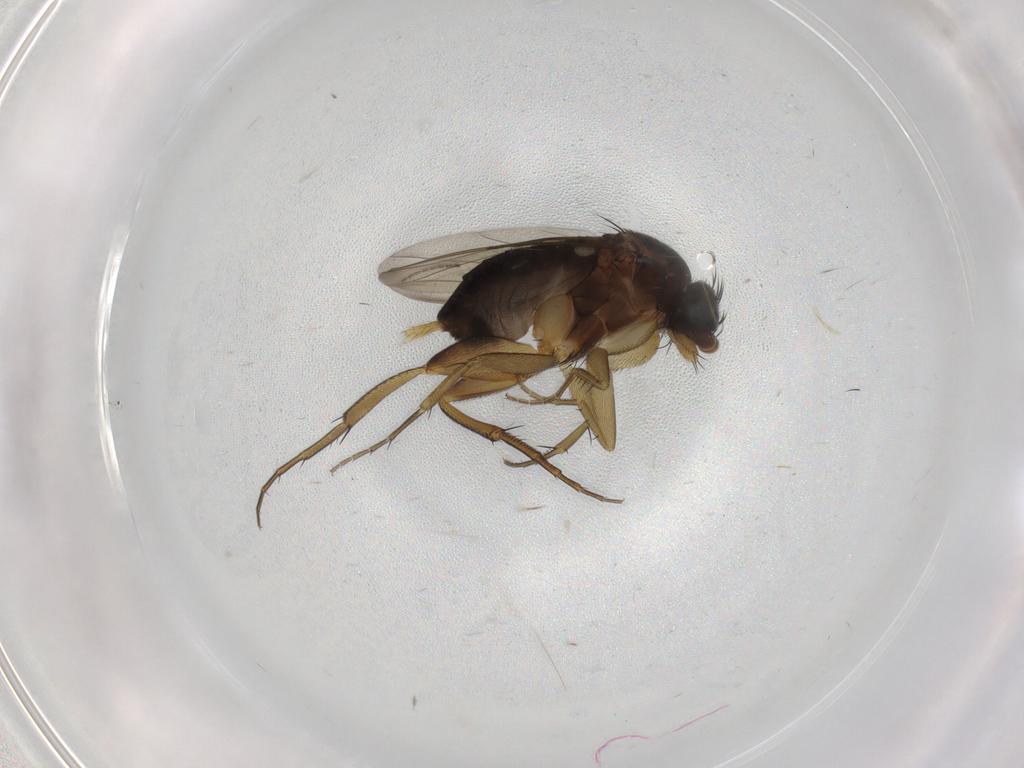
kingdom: Animalia
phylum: Arthropoda
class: Insecta
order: Diptera
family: Phoridae
